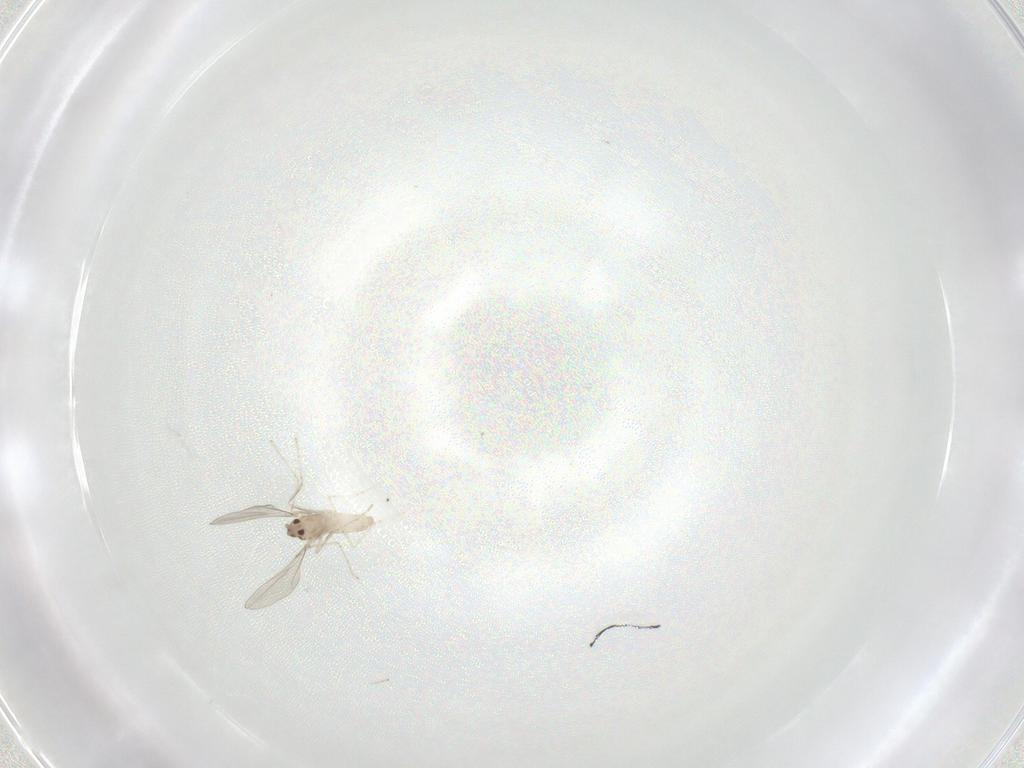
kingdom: Animalia
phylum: Arthropoda
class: Insecta
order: Diptera
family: Cecidomyiidae
